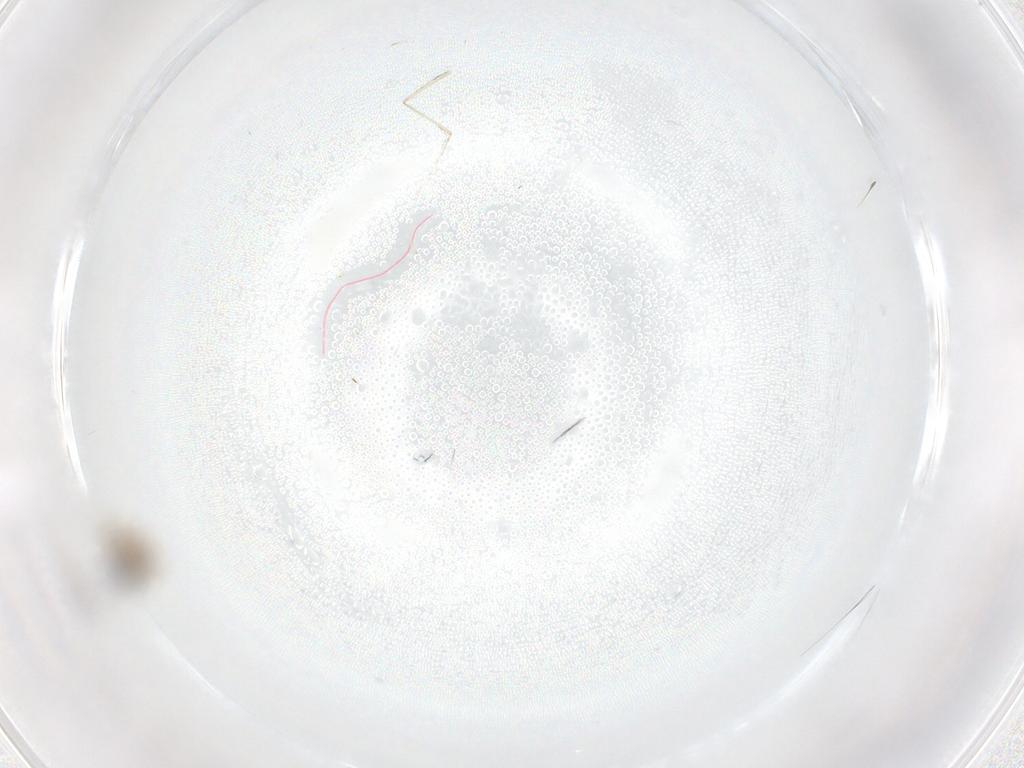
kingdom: Animalia
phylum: Arthropoda
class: Insecta
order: Diptera
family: Cecidomyiidae
